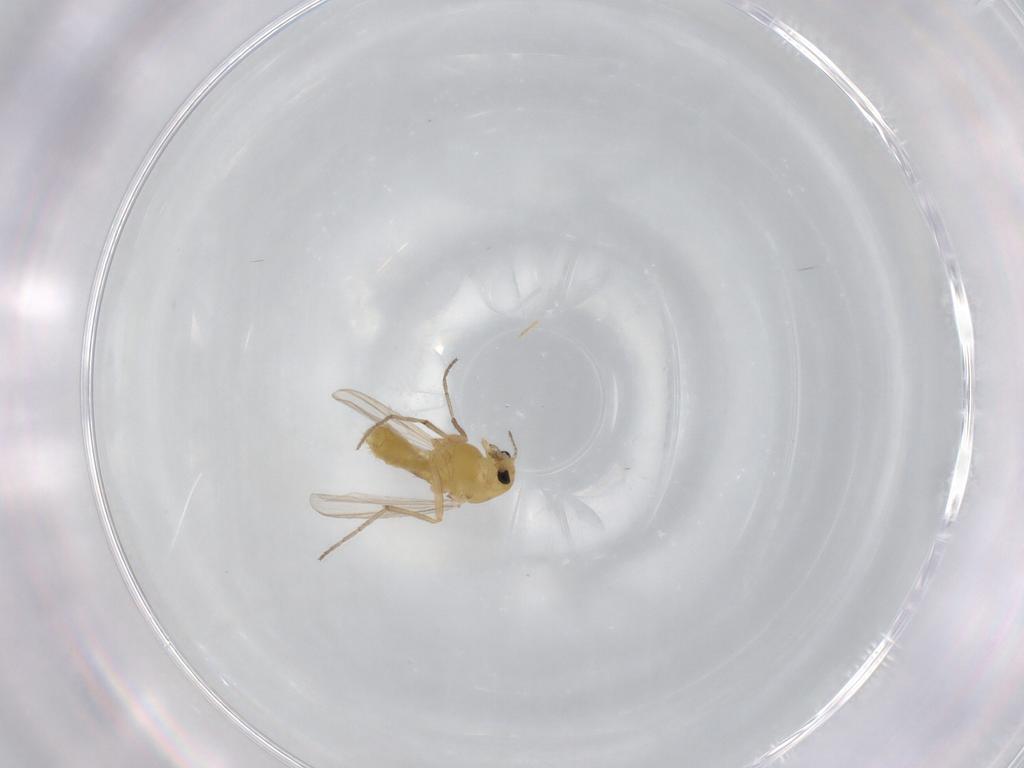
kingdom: Animalia
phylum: Arthropoda
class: Insecta
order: Diptera
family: Chironomidae
